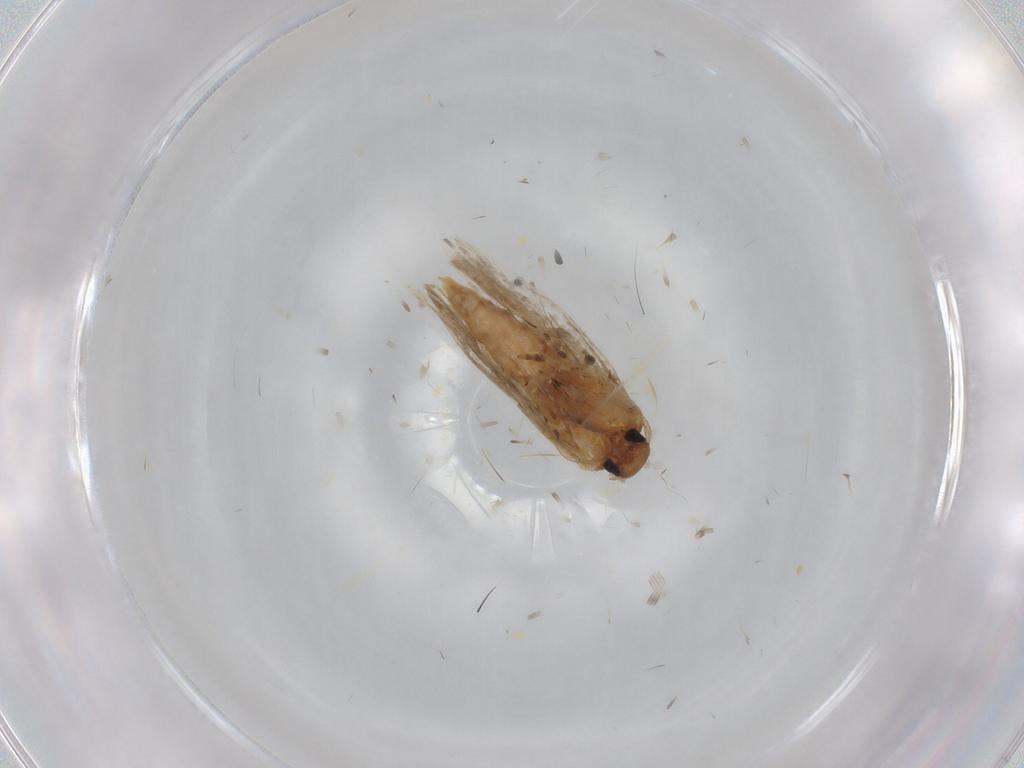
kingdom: Animalia
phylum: Arthropoda
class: Insecta
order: Lepidoptera
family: Gelechiidae
